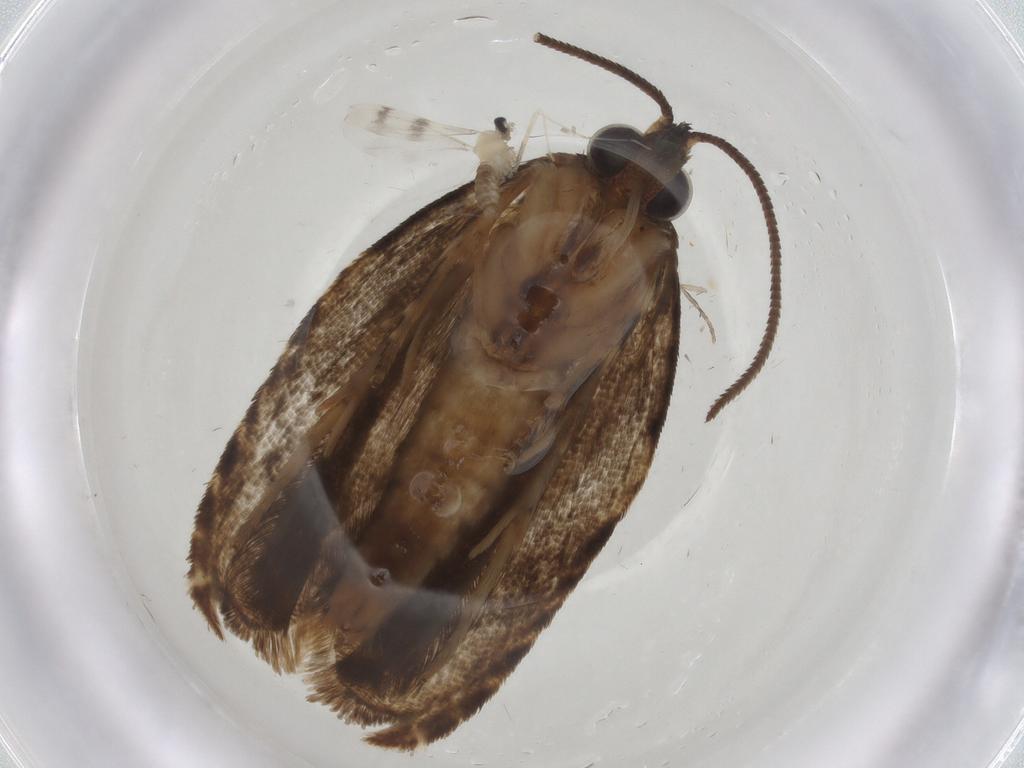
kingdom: Animalia
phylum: Arthropoda
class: Insecta
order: Lepidoptera
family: Tortricidae
